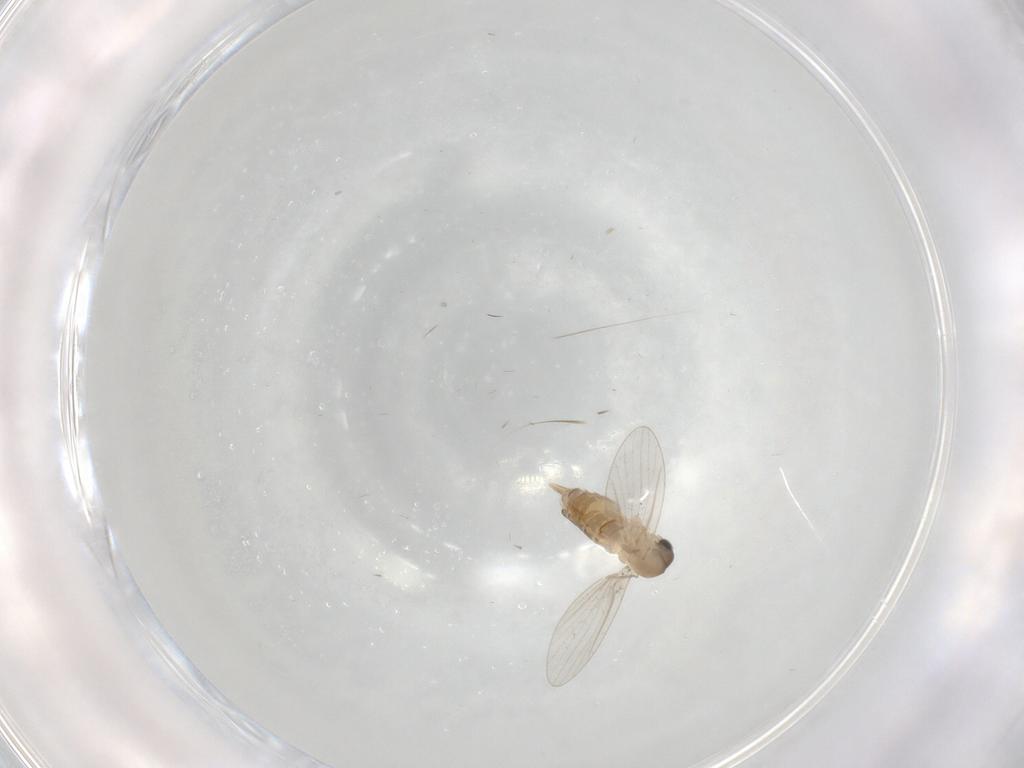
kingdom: Animalia
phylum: Arthropoda
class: Insecta
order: Diptera
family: Psychodidae
